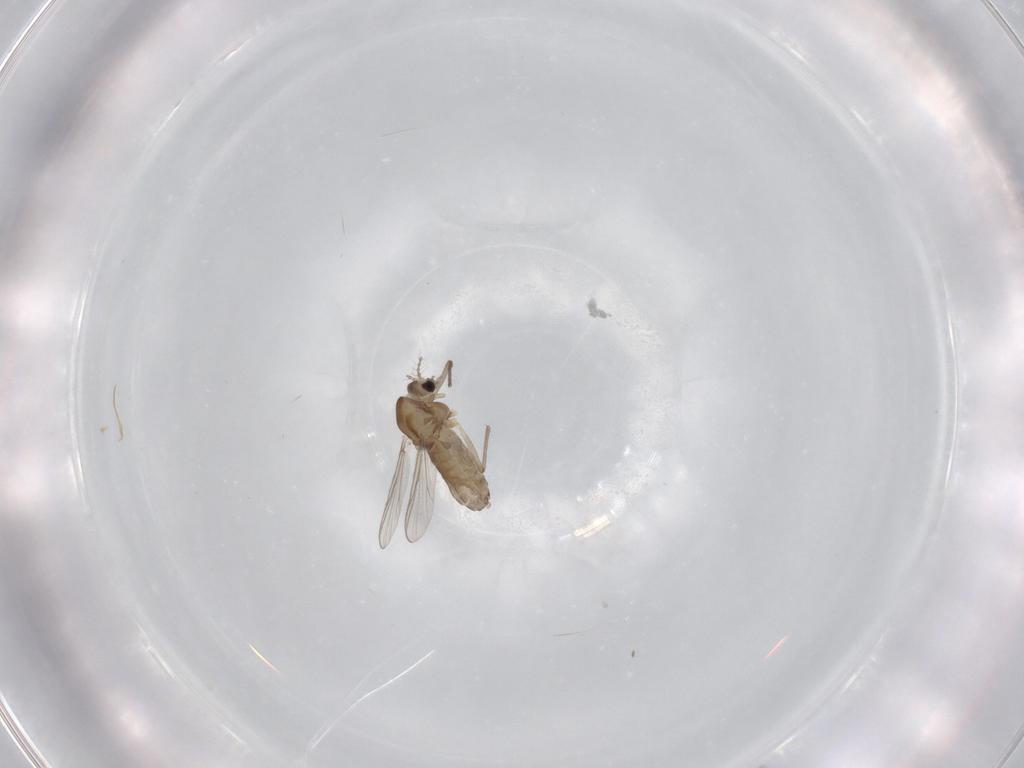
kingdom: Animalia
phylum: Arthropoda
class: Insecta
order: Diptera
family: Chironomidae
